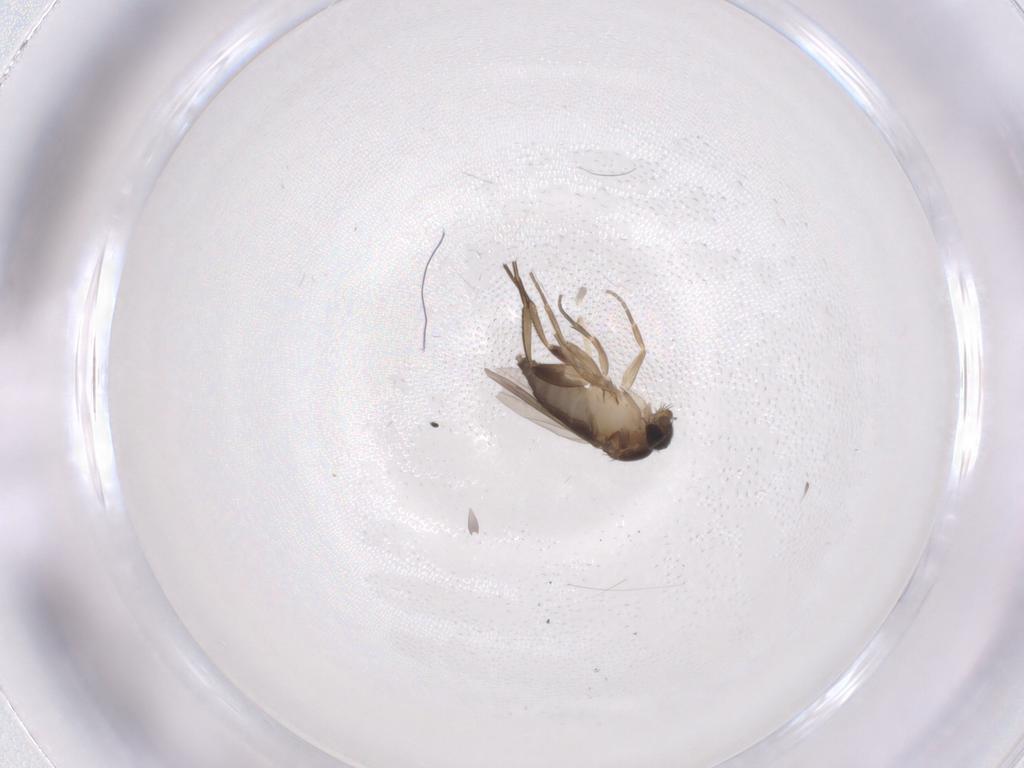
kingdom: Animalia
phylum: Arthropoda
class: Insecta
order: Diptera
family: Phoridae
